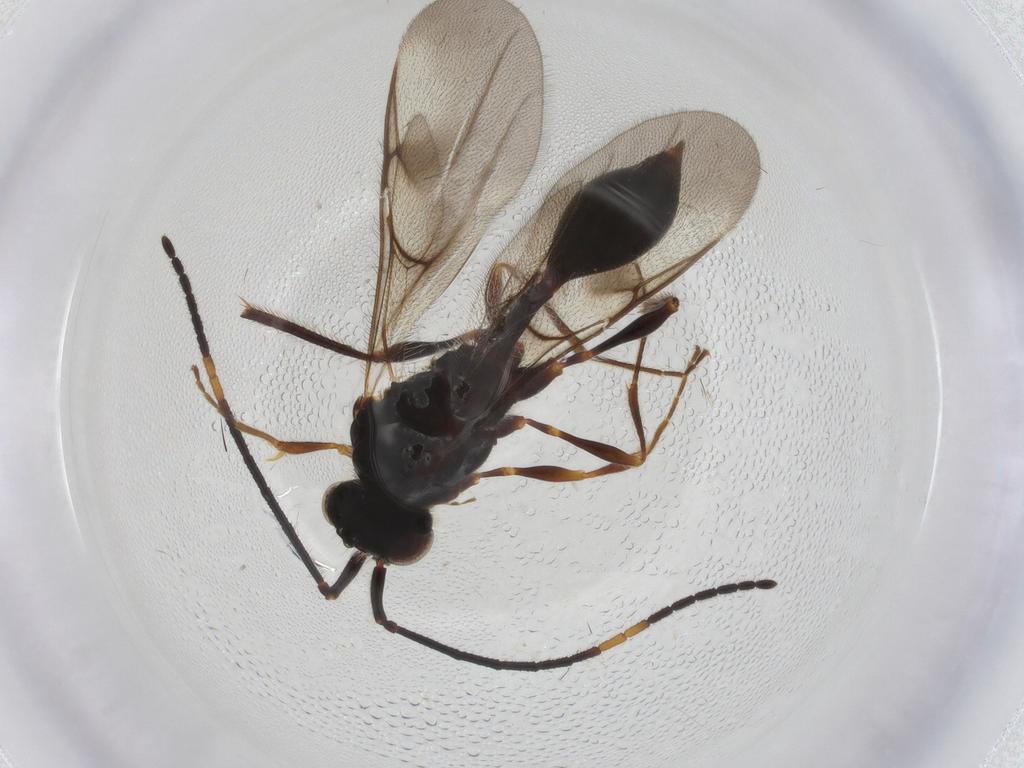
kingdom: Animalia
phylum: Arthropoda
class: Insecta
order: Hymenoptera
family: Diapriidae
